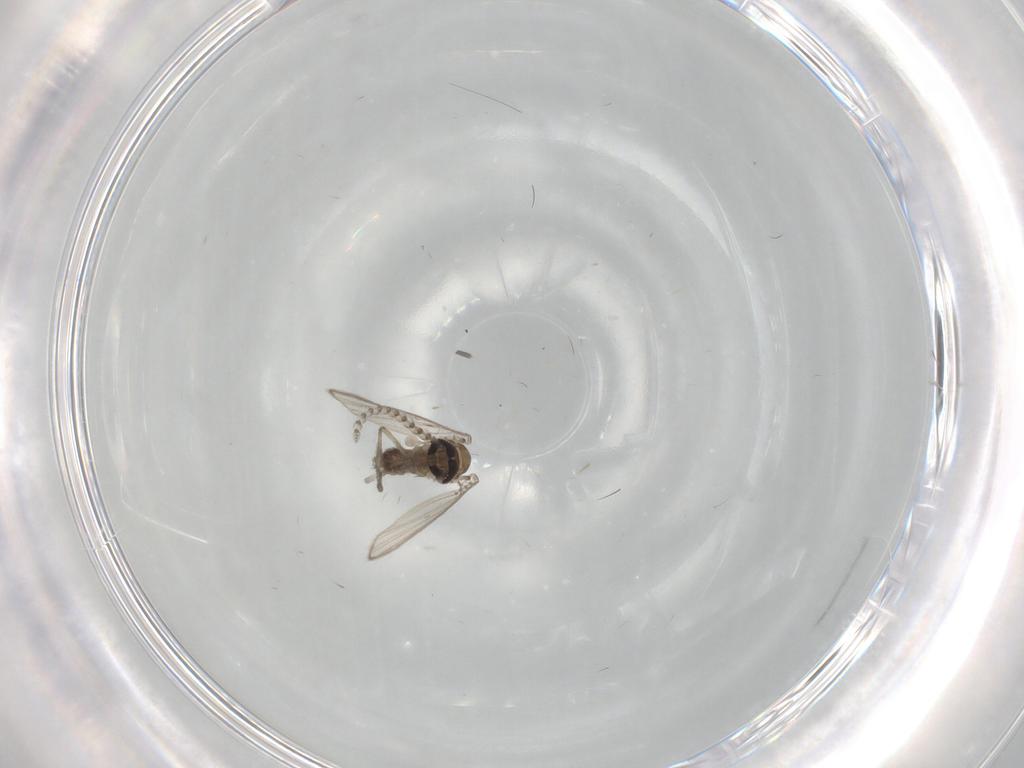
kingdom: Animalia
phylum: Arthropoda
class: Insecta
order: Diptera
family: Psychodidae
